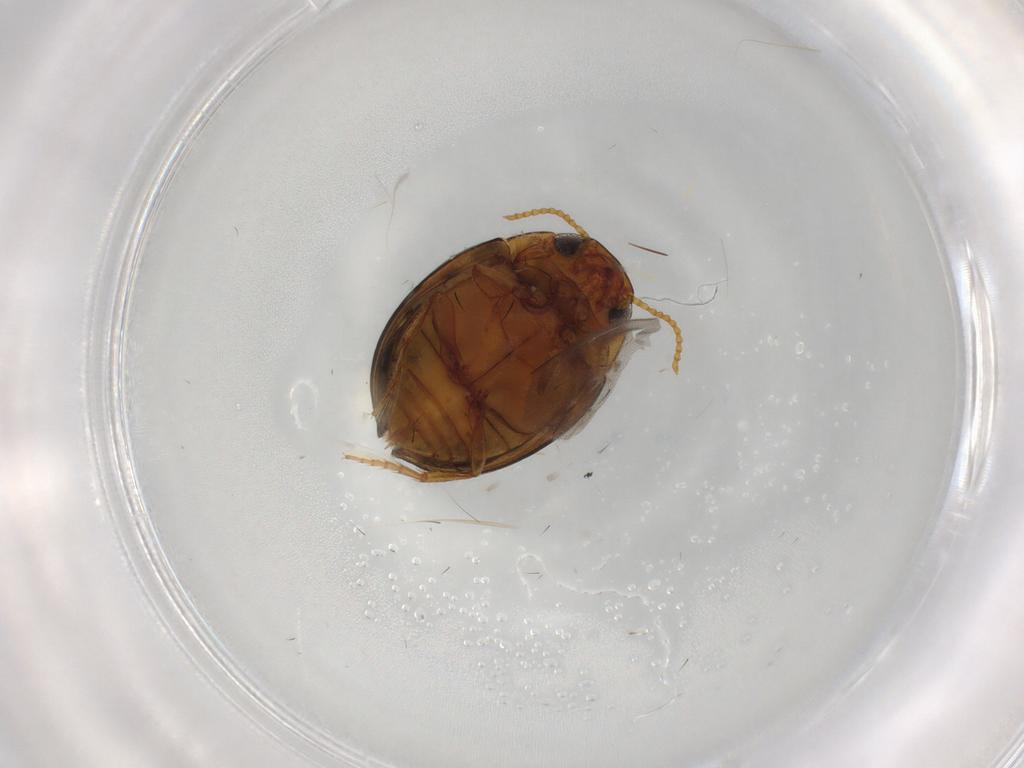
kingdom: Animalia
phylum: Arthropoda
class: Insecta
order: Coleoptera
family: Dytiscidae
